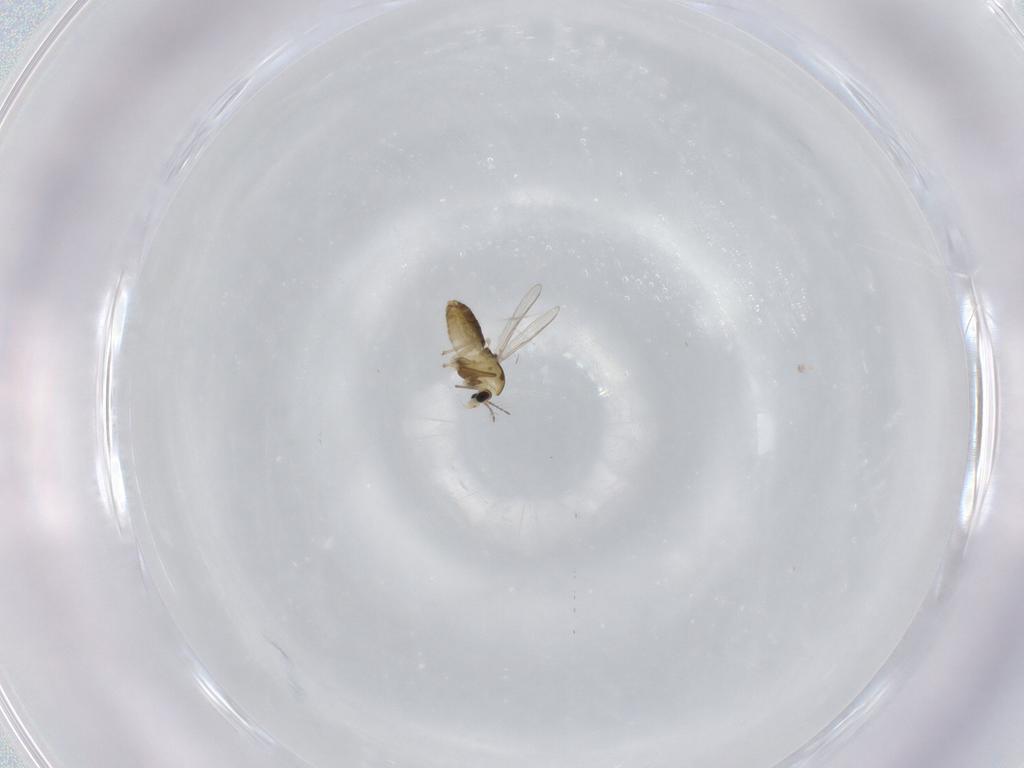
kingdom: Animalia
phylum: Arthropoda
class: Insecta
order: Diptera
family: Chironomidae
